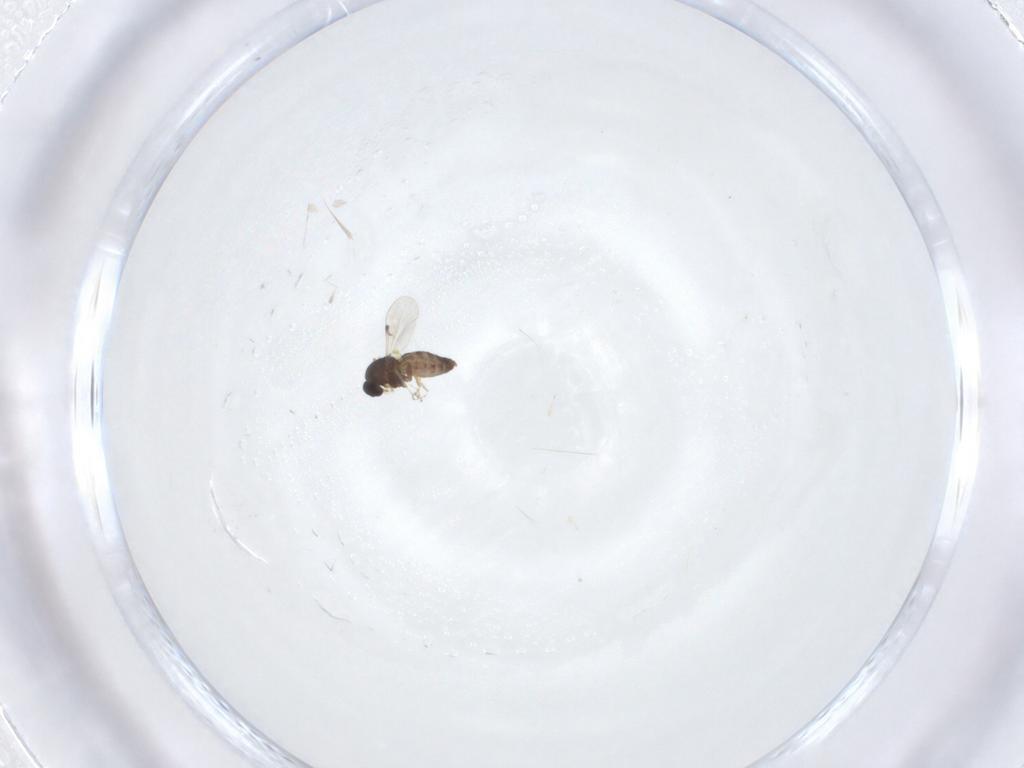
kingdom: Animalia
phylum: Arthropoda
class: Insecta
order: Diptera
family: Ceratopogonidae
